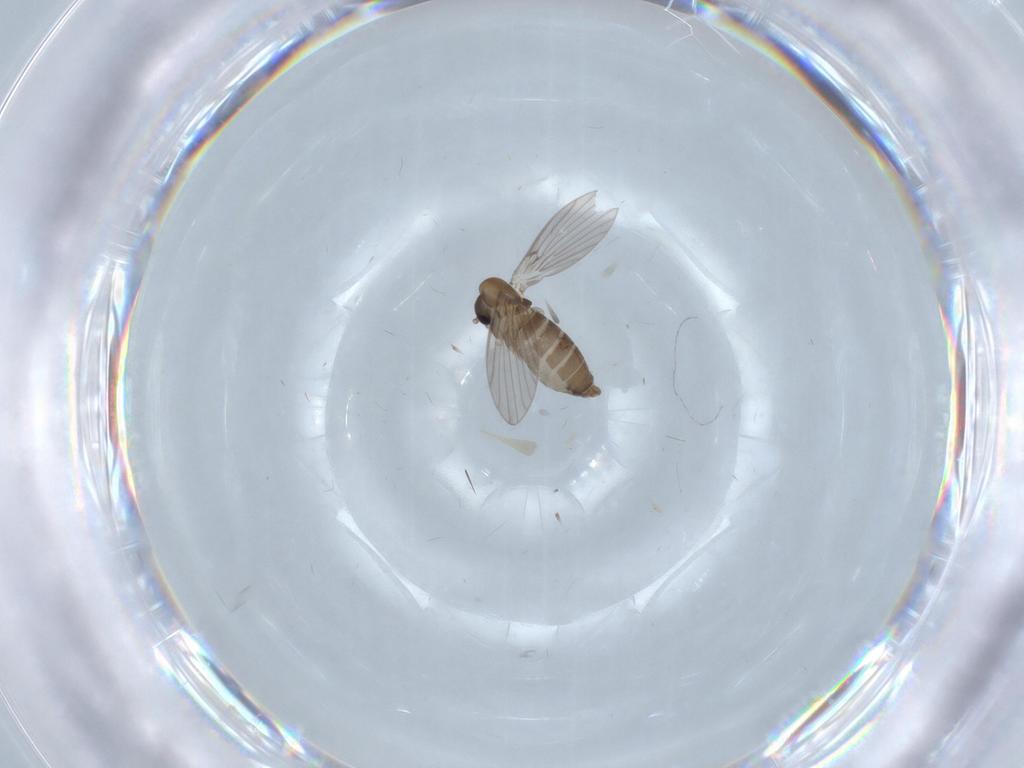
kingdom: Animalia
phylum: Arthropoda
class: Insecta
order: Diptera
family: Psychodidae
